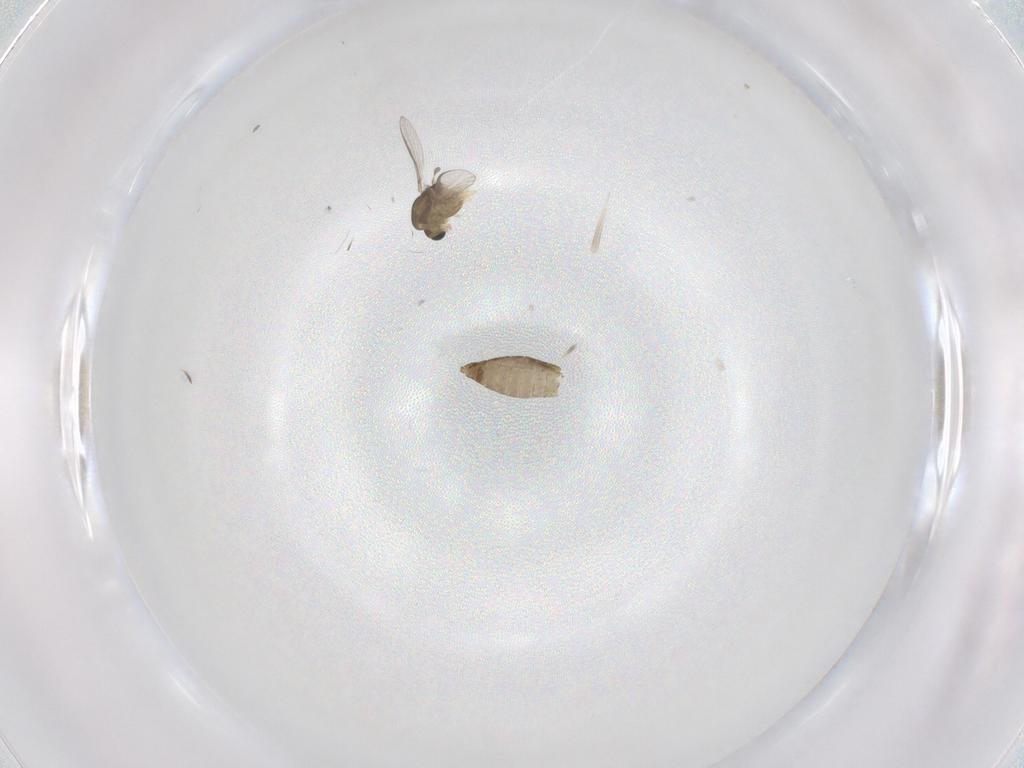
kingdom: Animalia
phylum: Arthropoda
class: Insecta
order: Diptera
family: Chironomidae
